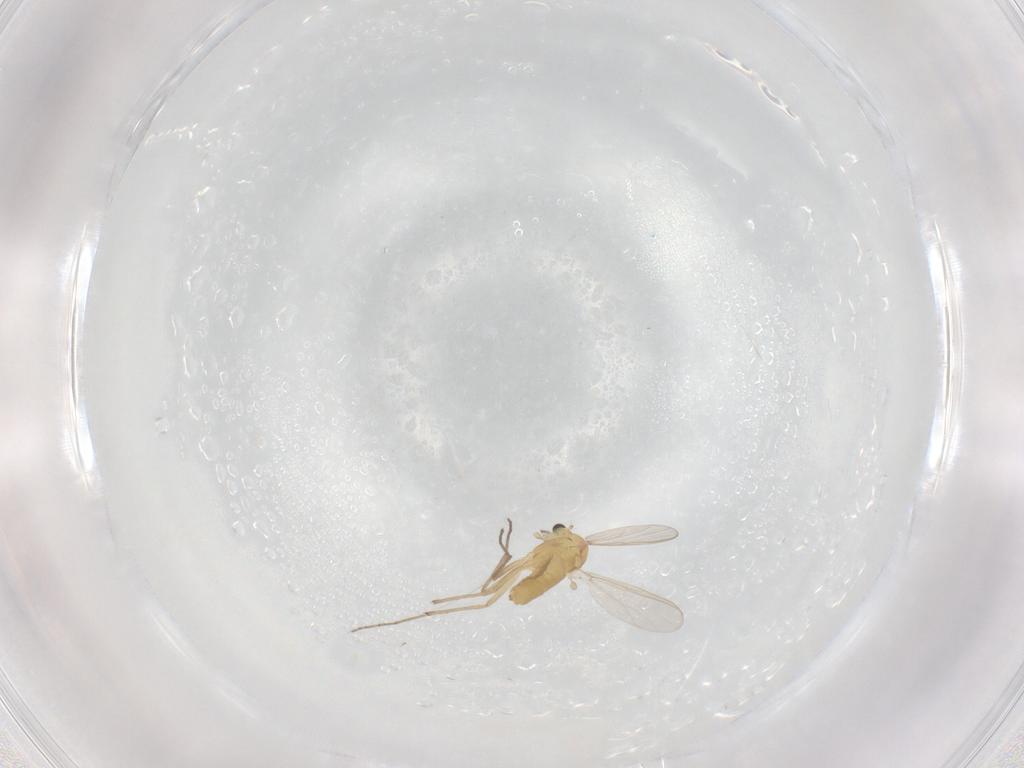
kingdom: Animalia
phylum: Arthropoda
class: Insecta
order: Diptera
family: Chironomidae
